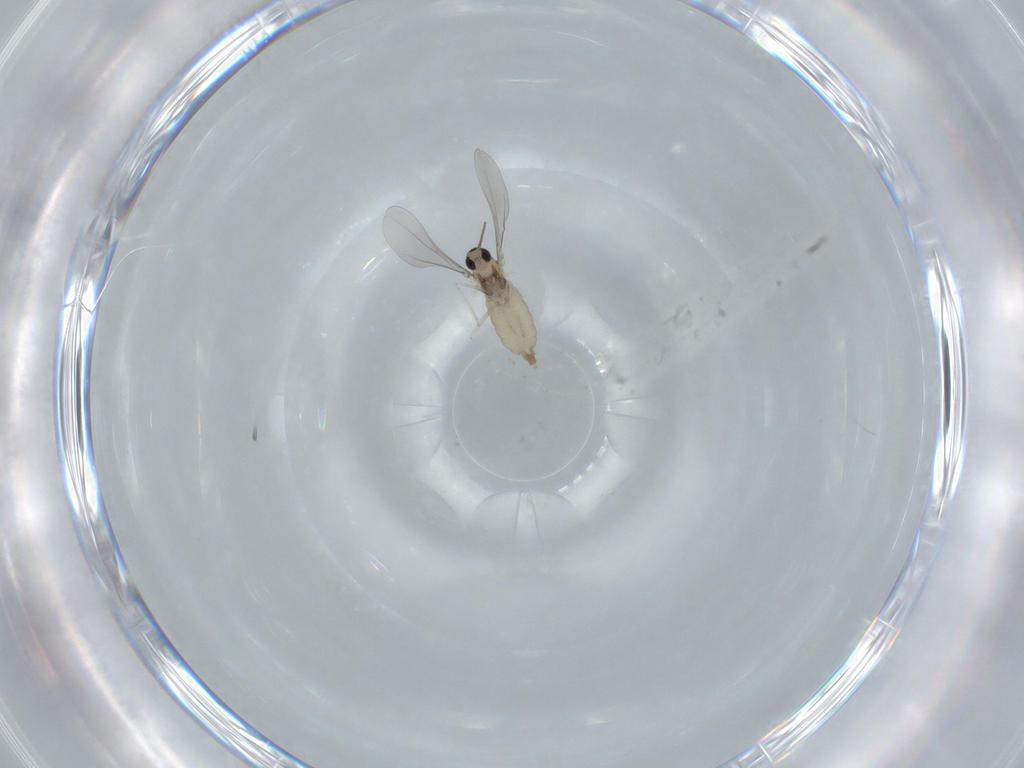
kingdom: Animalia
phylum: Arthropoda
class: Insecta
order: Diptera
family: Cecidomyiidae
